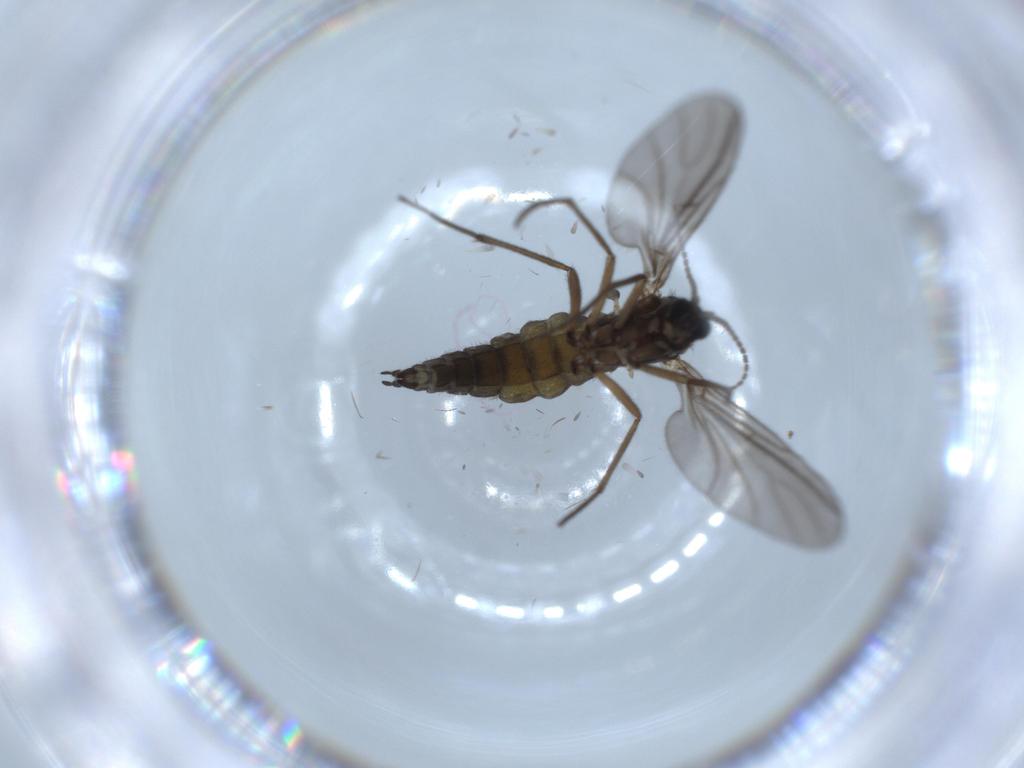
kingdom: Animalia
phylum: Arthropoda
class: Insecta
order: Diptera
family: Sciaridae
